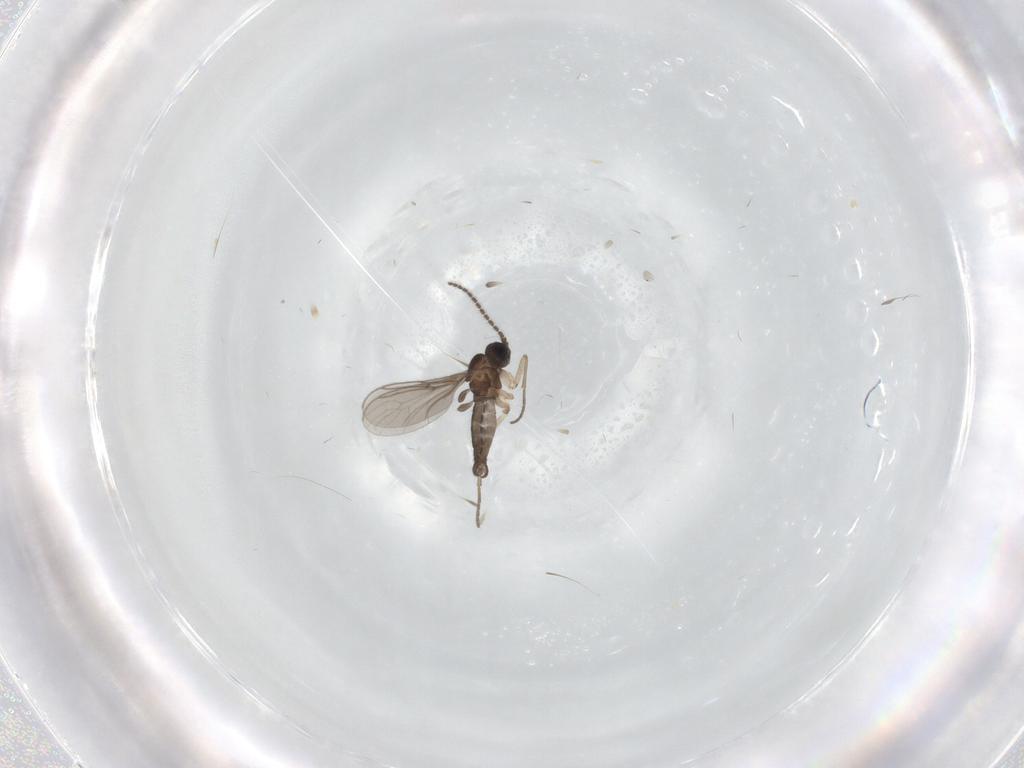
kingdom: Animalia
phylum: Arthropoda
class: Insecta
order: Diptera
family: Sciaridae
